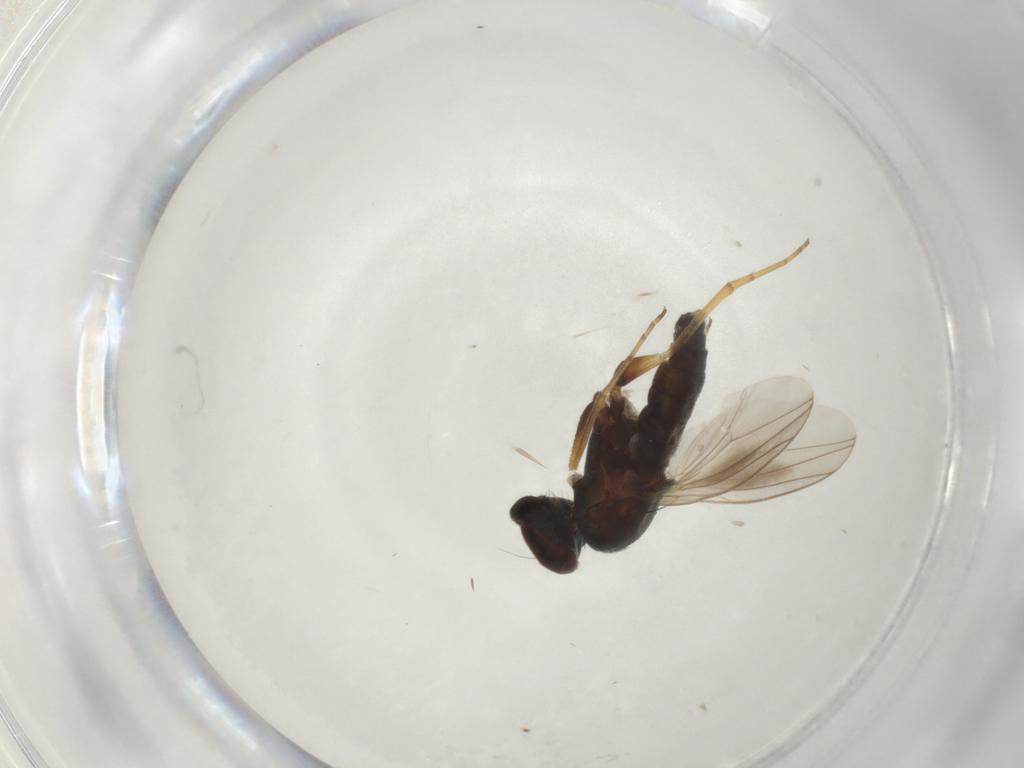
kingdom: Animalia
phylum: Arthropoda
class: Insecta
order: Diptera
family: Dolichopodidae
